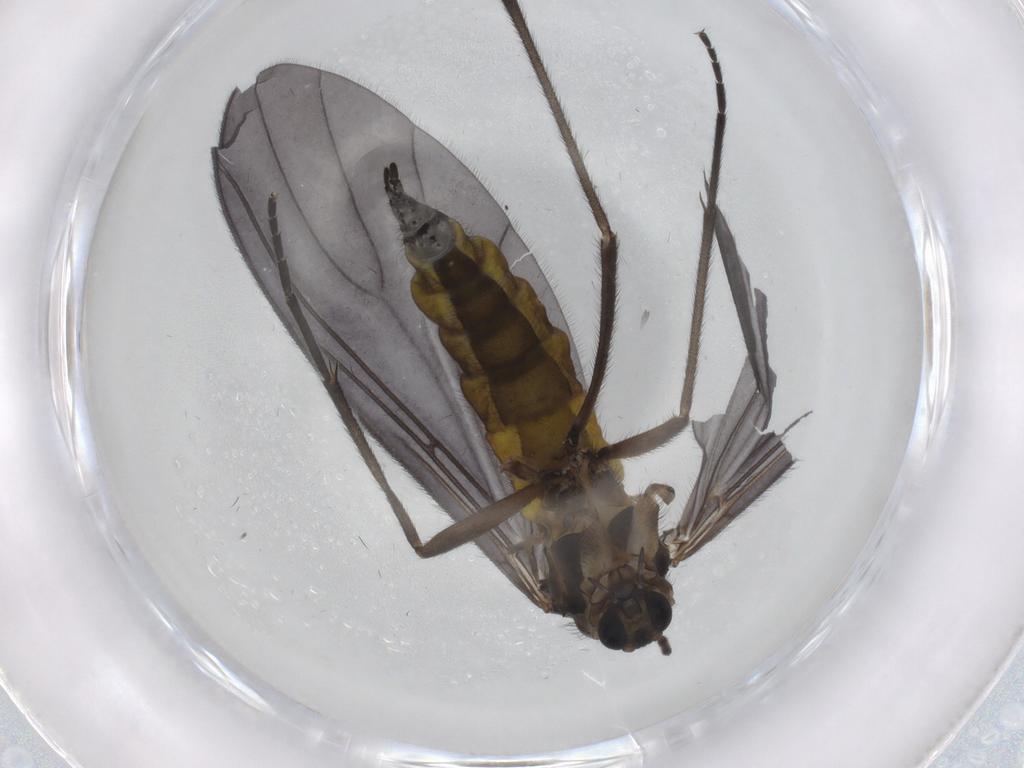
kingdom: Animalia
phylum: Arthropoda
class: Insecta
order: Diptera
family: Sciaridae
